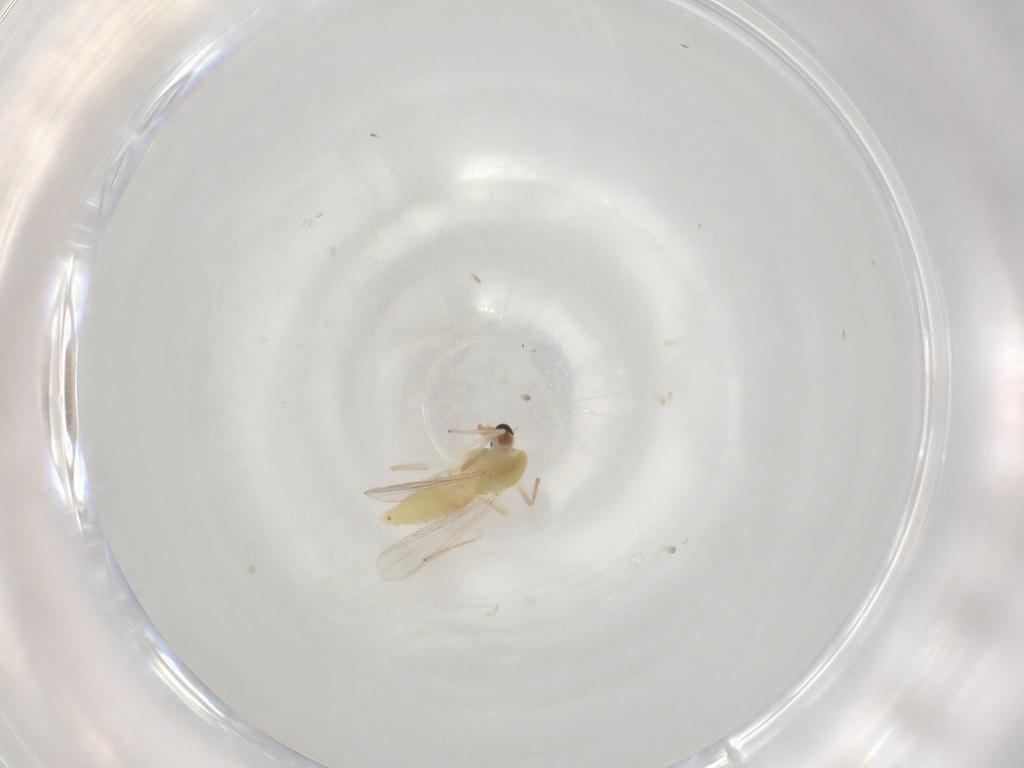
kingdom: Animalia
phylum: Arthropoda
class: Insecta
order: Diptera
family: Chironomidae
